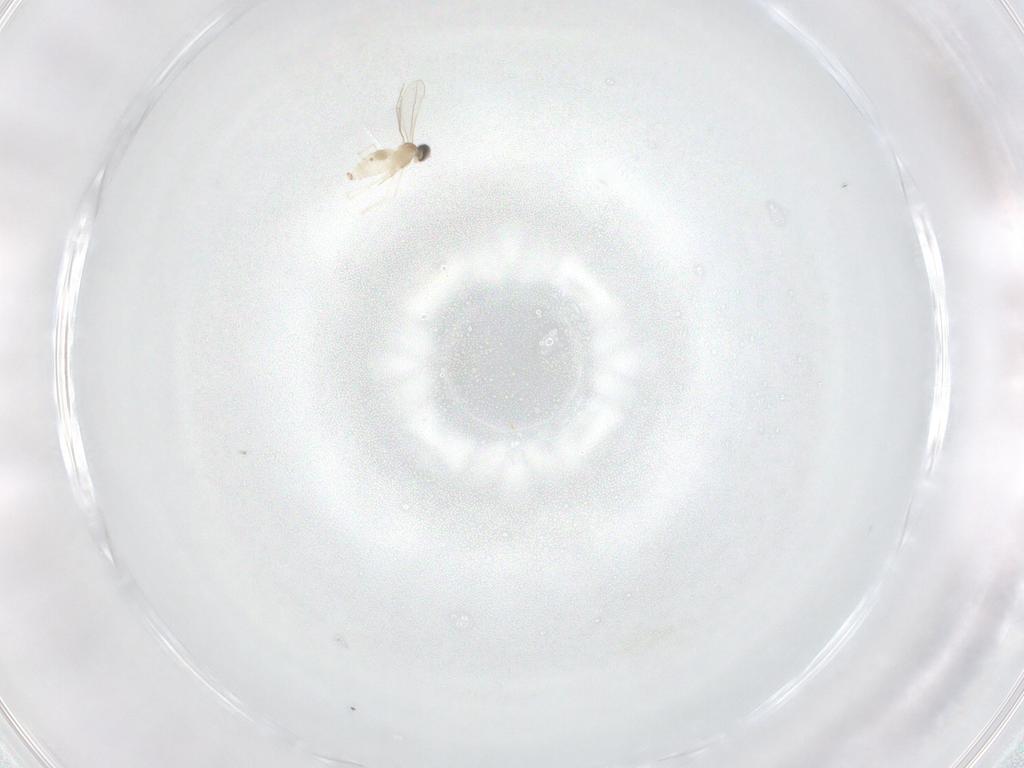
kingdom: Animalia
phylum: Arthropoda
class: Insecta
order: Diptera
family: Cecidomyiidae
